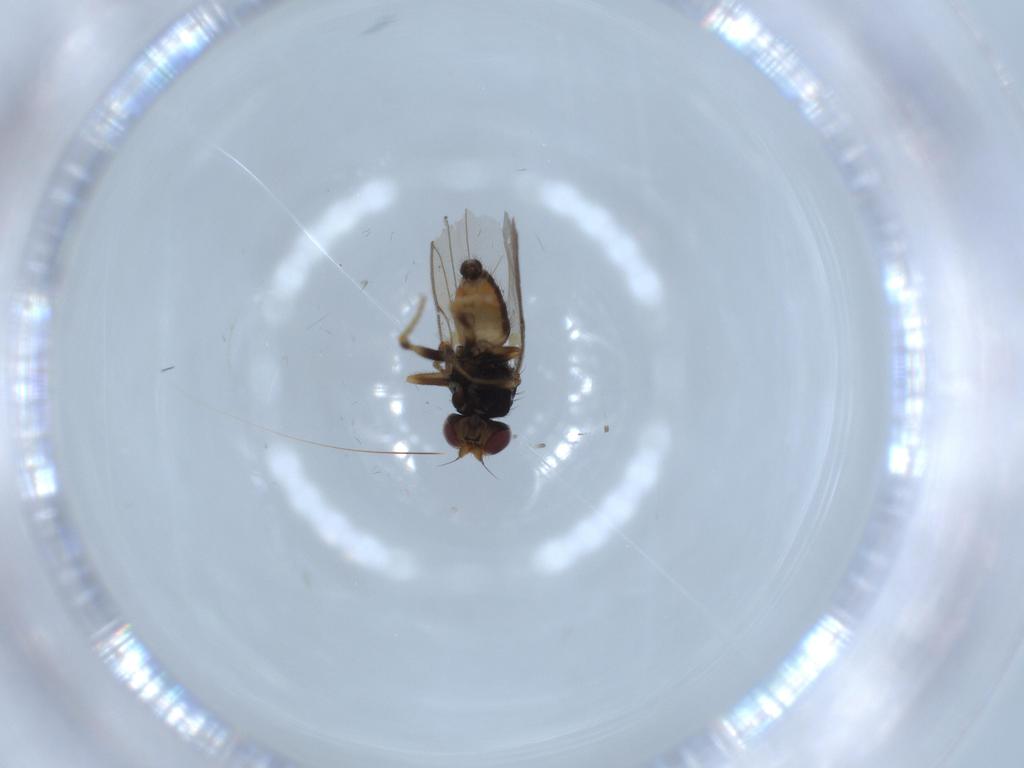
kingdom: Animalia
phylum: Arthropoda
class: Insecta
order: Diptera
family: Chloropidae
